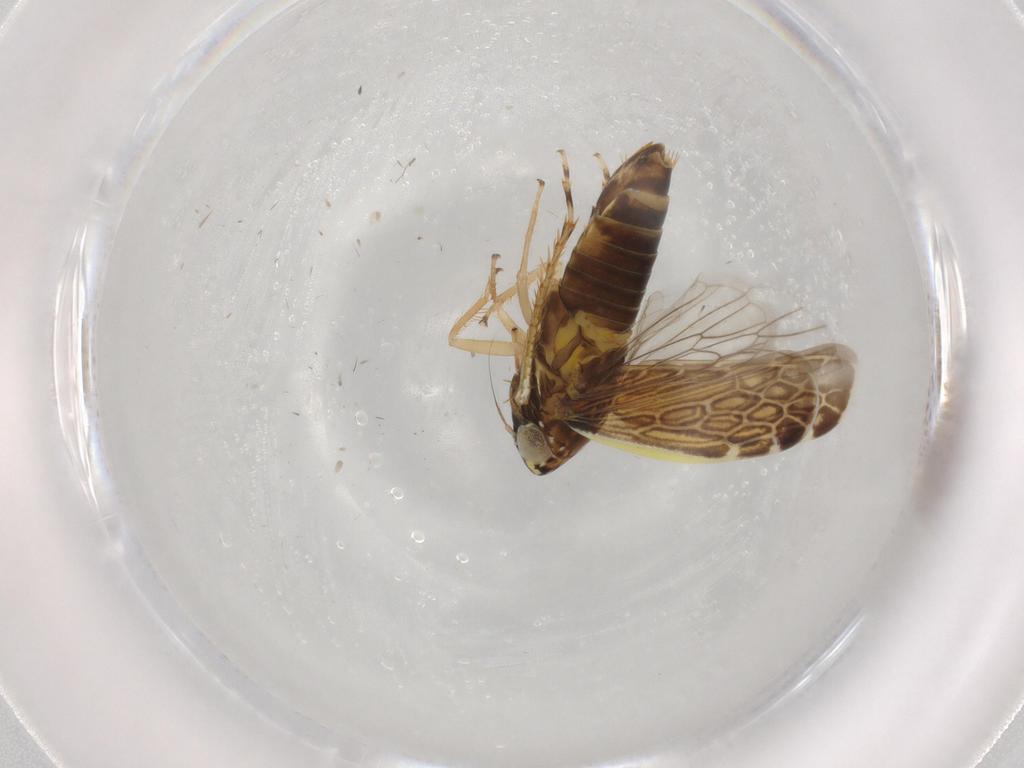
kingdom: Animalia
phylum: Arthropoda
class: Insecta
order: Hemiptera
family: Cicadellidae
